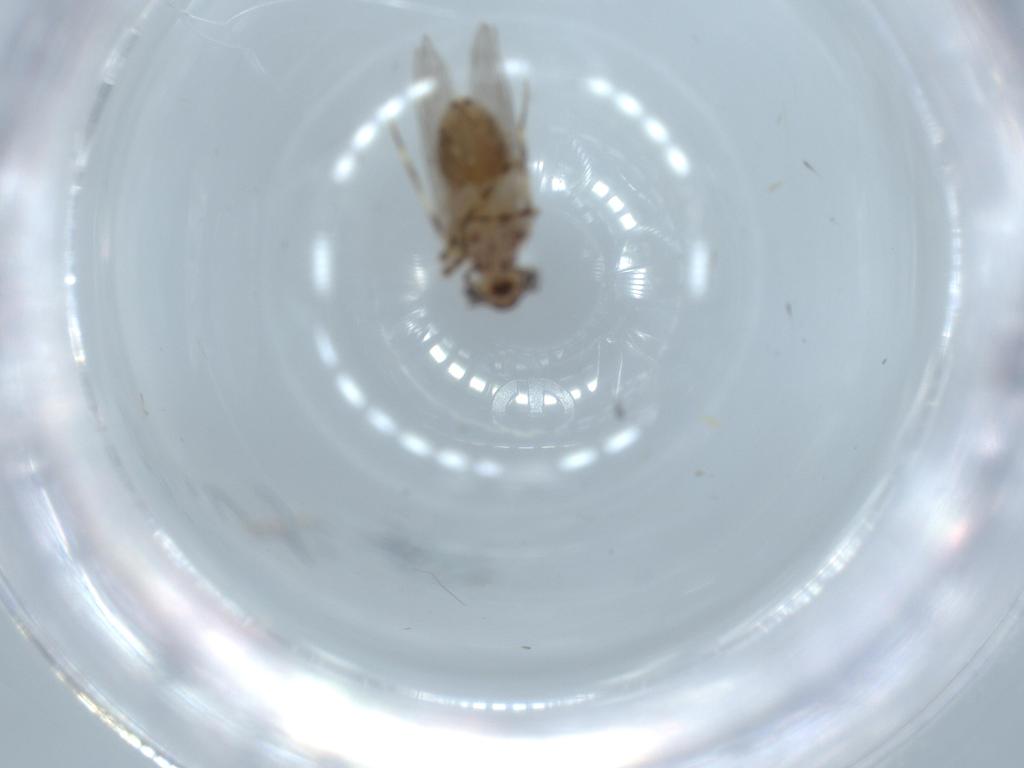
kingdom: Animalia
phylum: Arthropoda
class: Insecta
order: Psocodea
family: Lepidopsocidae
